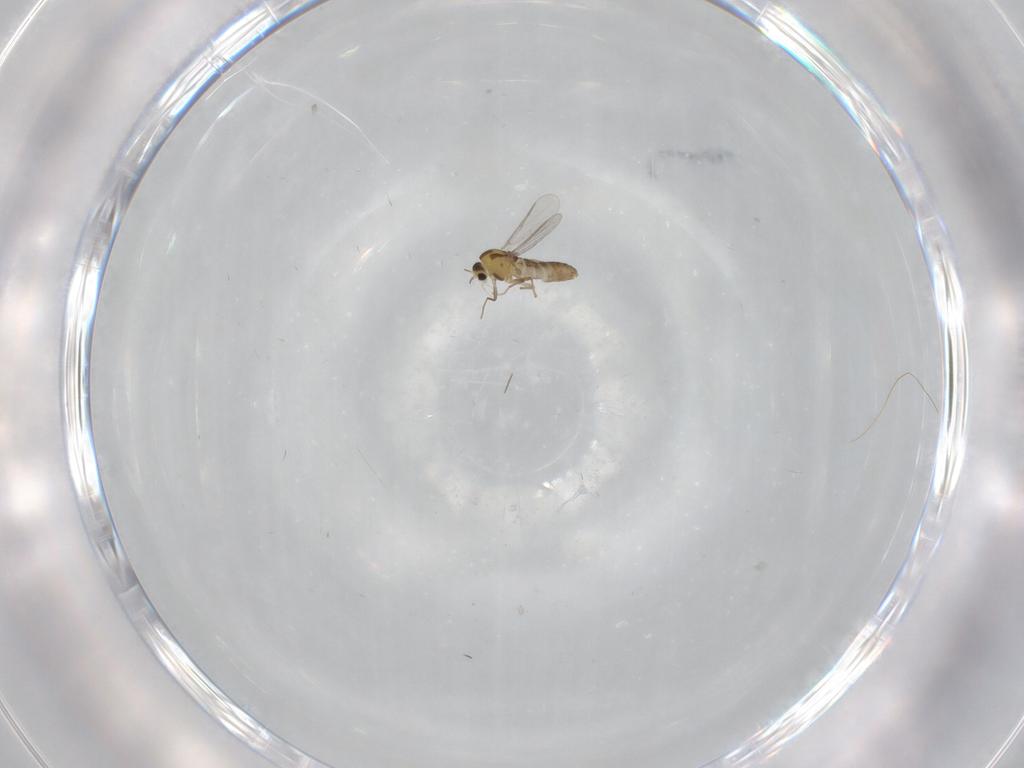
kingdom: Animalia
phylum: Arthropoda
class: Insecta
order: Diptera
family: Chironomidae
